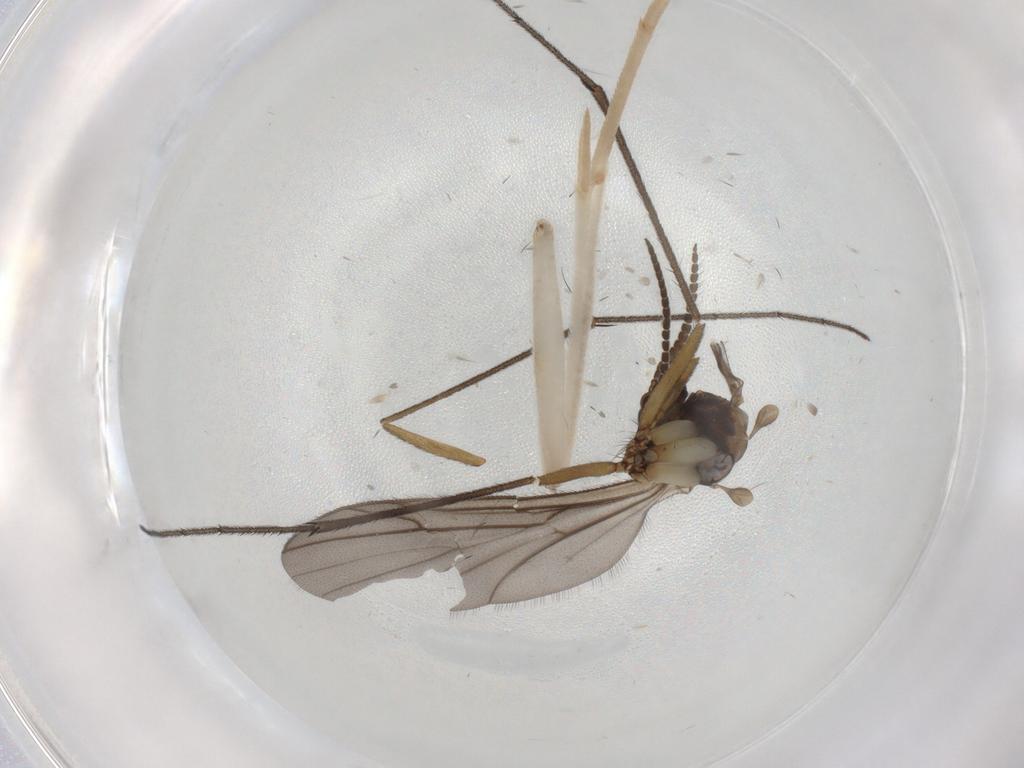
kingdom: Animalia
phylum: Arthropoda
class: Insecta
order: Diptera
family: Ditomyiidae
